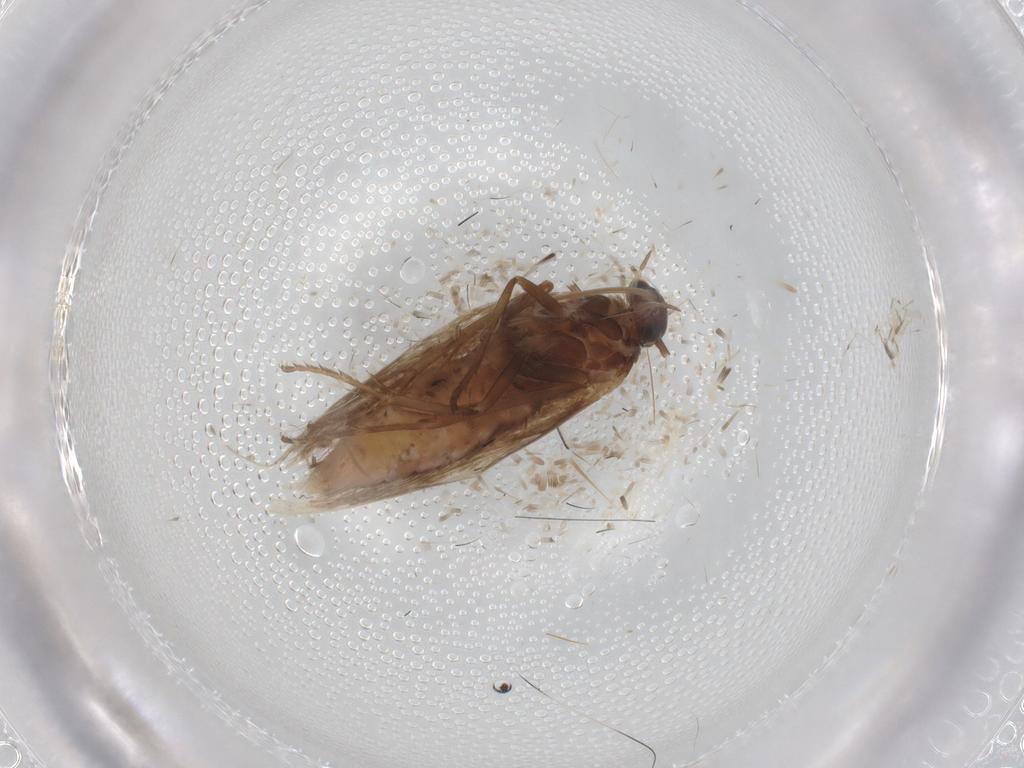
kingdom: Animalia
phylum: Arthropoda
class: Insecta
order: Lepidoptera
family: Scythrididae
